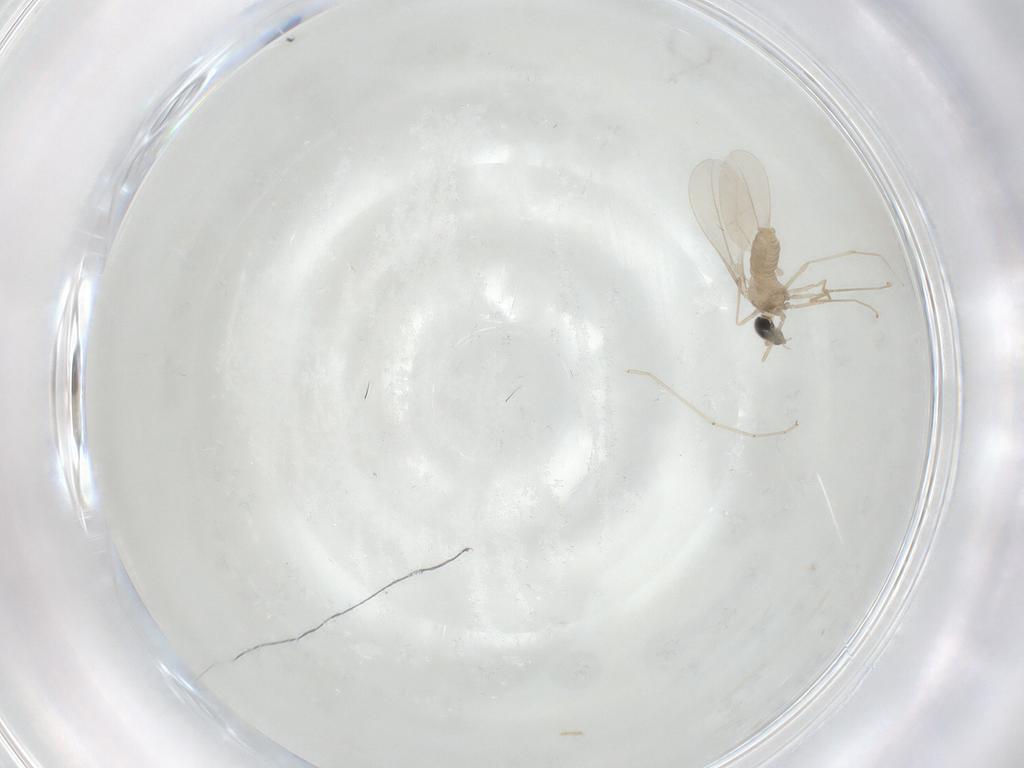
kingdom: Animalia
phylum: Arthropoda
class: Insecta
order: Diptera
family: Cecidomyiidae
